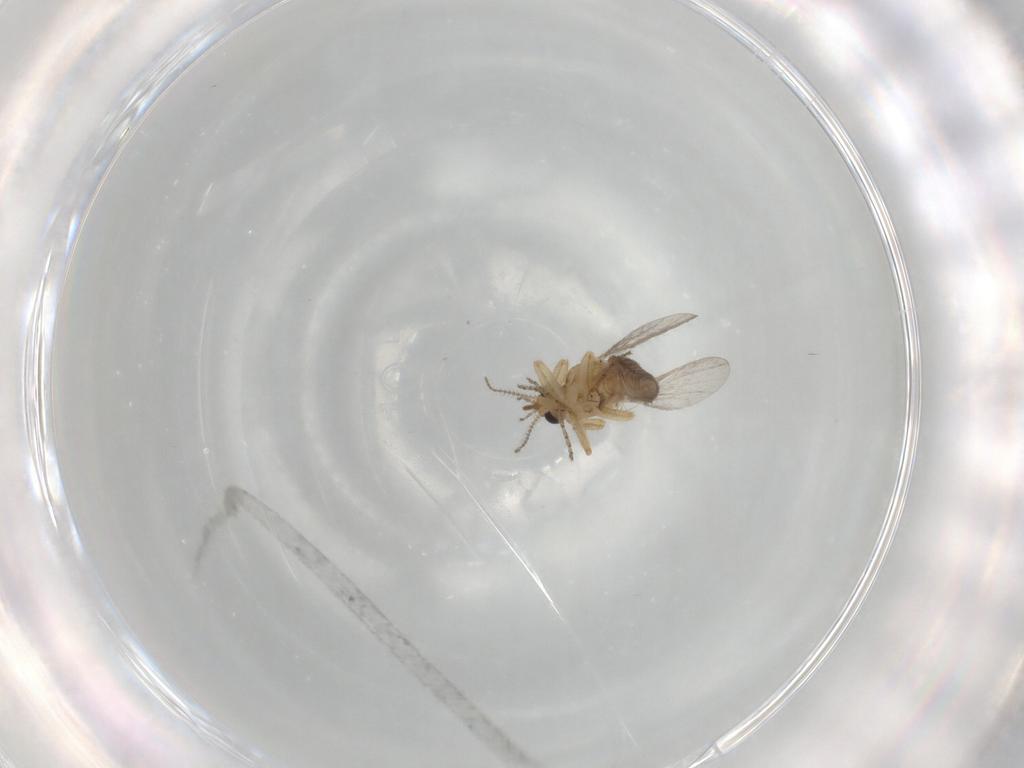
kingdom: Animalia
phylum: Arthropoda
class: Insecta
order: Diptera
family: Ceratopogonidae
